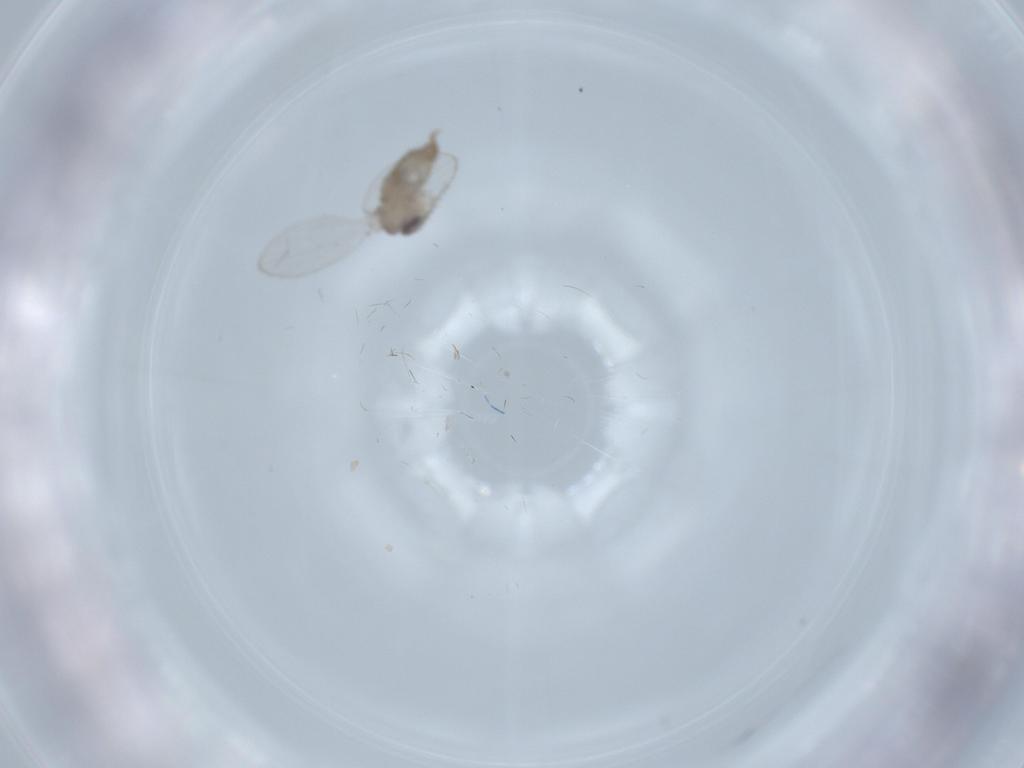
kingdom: Animalia
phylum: Arthropoda
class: Insecta
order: Diptera
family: Psychodidae
